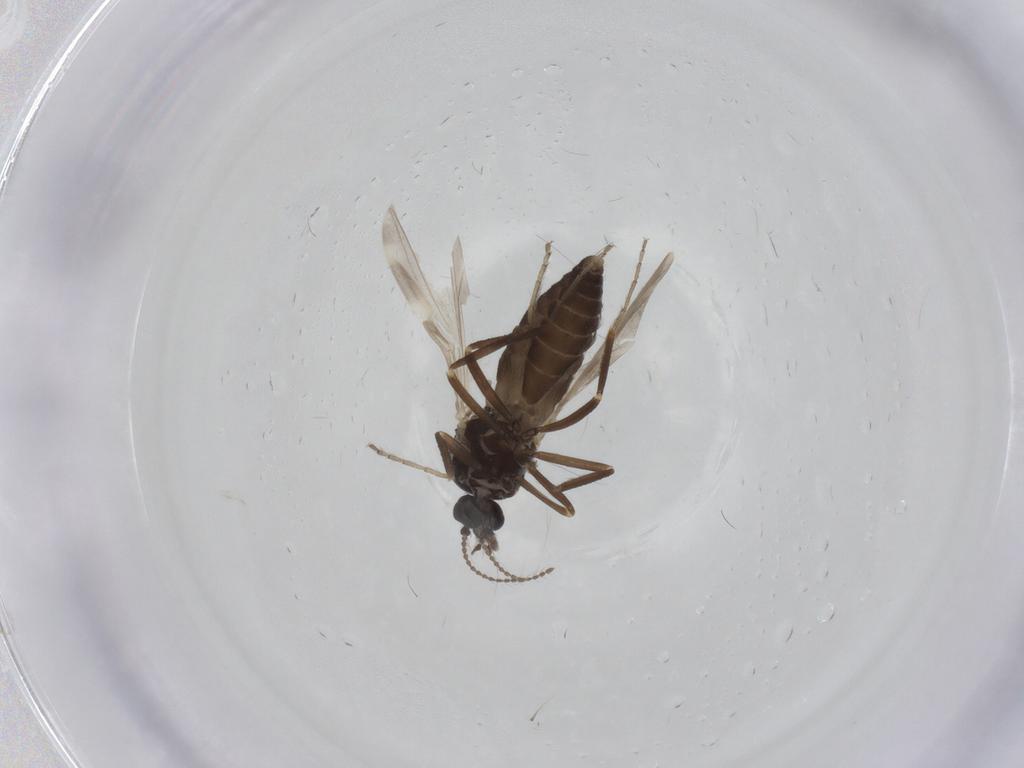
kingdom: Animalia
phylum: Arthropoda
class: Insecta
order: Diptera
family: Ceratopogonidae
